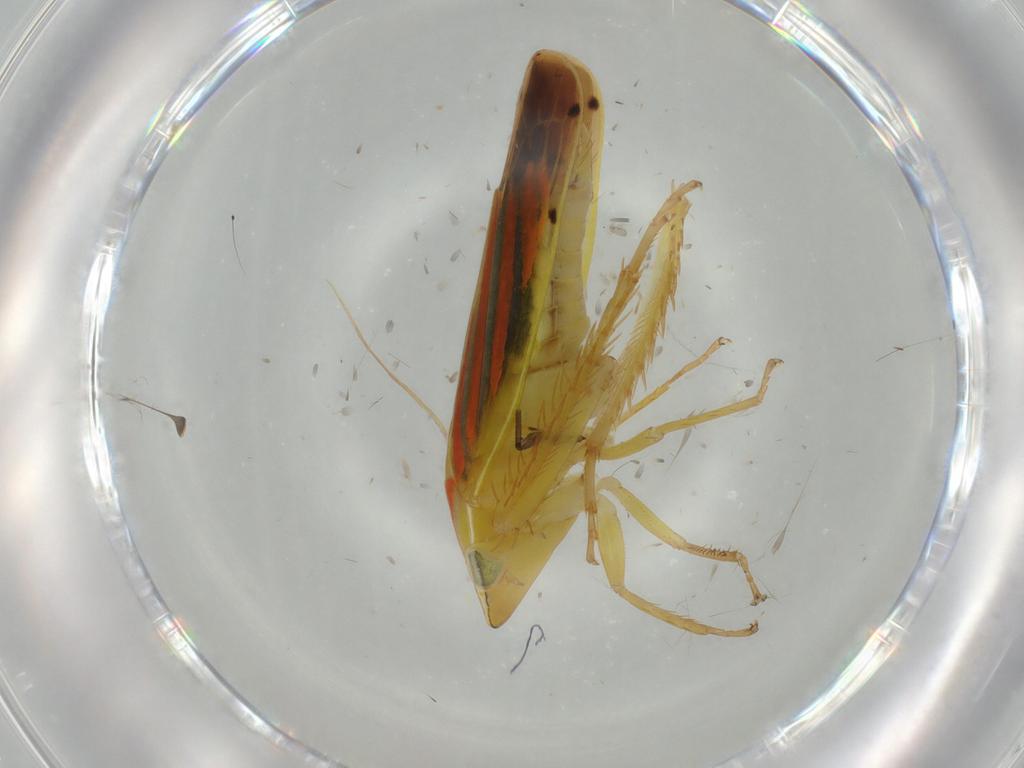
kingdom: Animalia
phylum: Arthropoda
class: Insecta
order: Hemiptera
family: Cicadellidae
